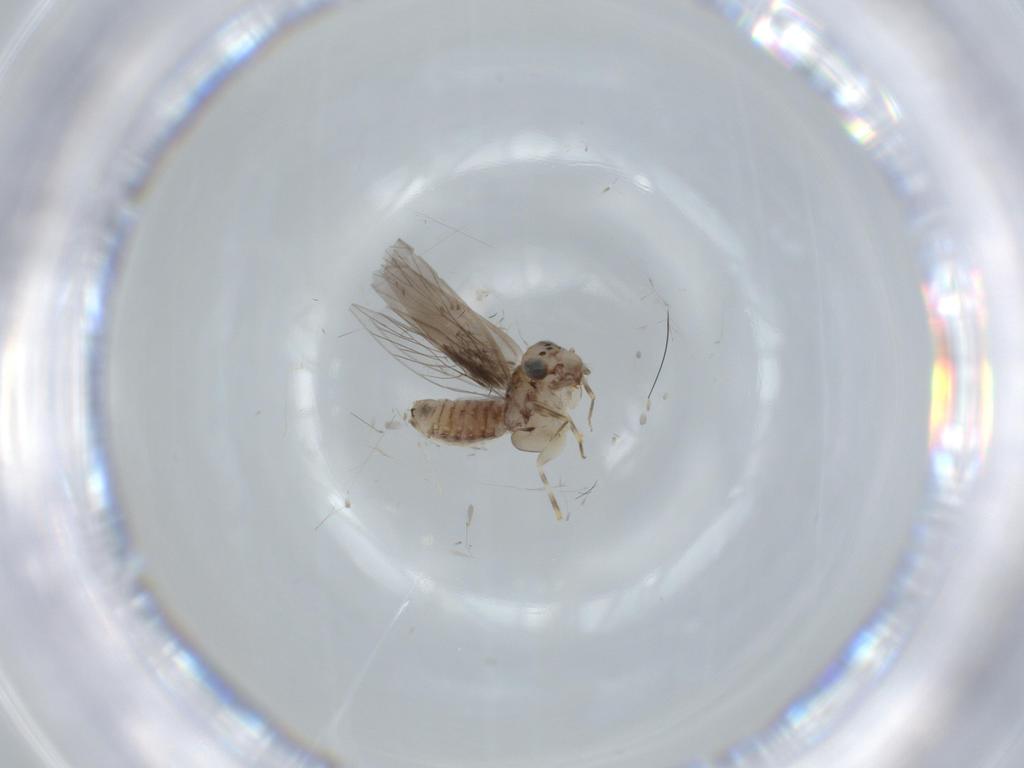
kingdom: Animalia
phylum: Arthropoda
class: Insecta
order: Psocodea
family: Lepidopsocidae
